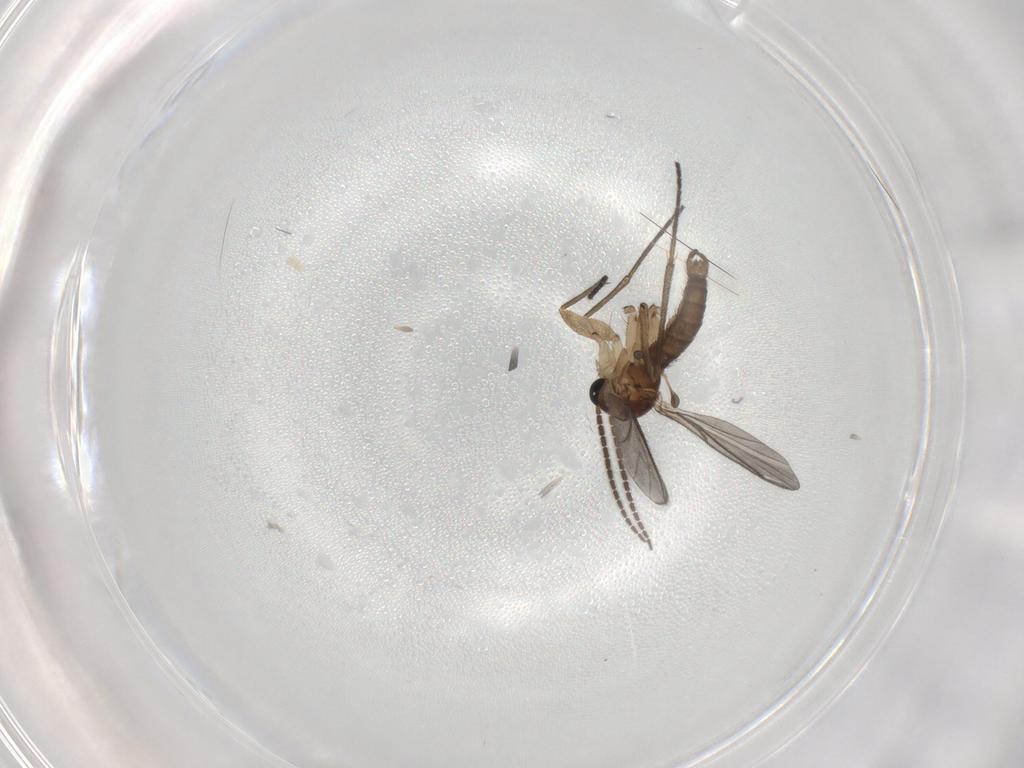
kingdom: Animalia
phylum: Arthropoda
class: Insecta
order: Diptera
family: Sciaridae
